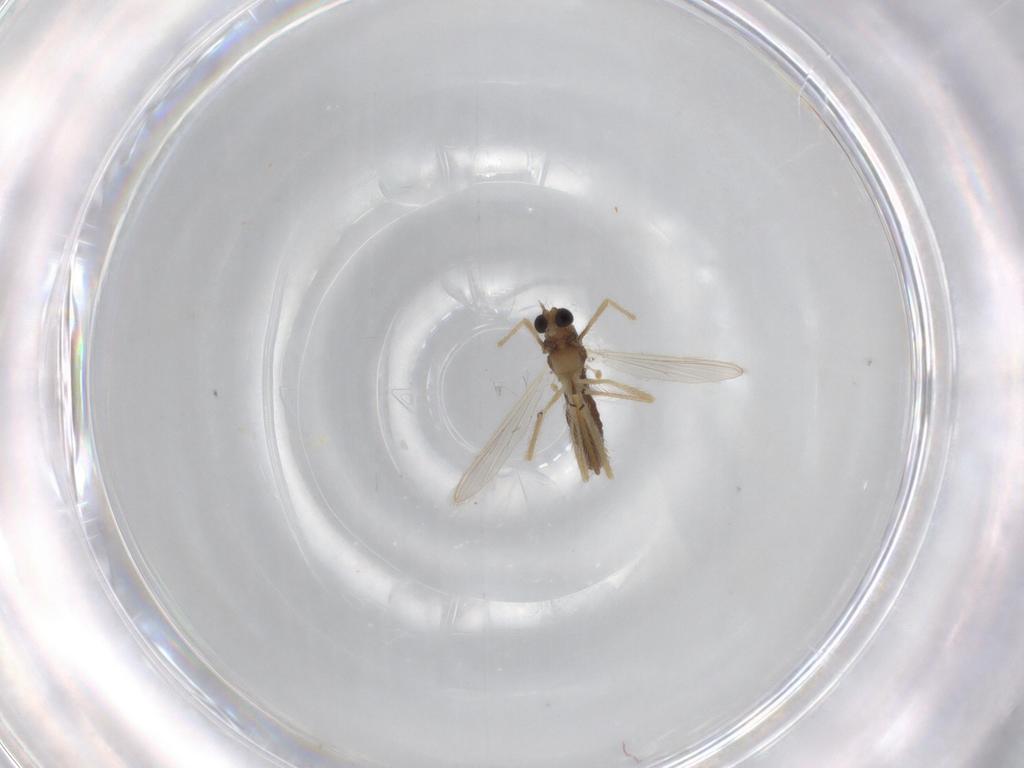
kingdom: Animalia
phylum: Arthropoda
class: Insecta
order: Diptera
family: Chironomidae
